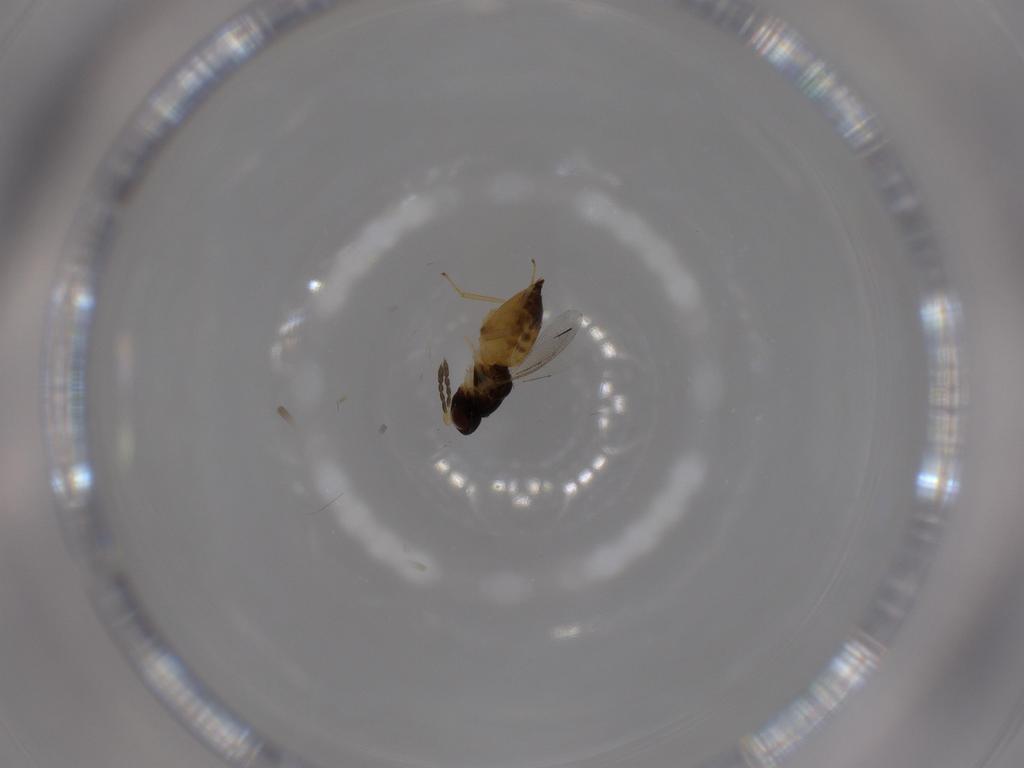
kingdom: Animalia
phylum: Arthropoda
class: Insecta
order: Hymenoptera
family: Eulophidae
